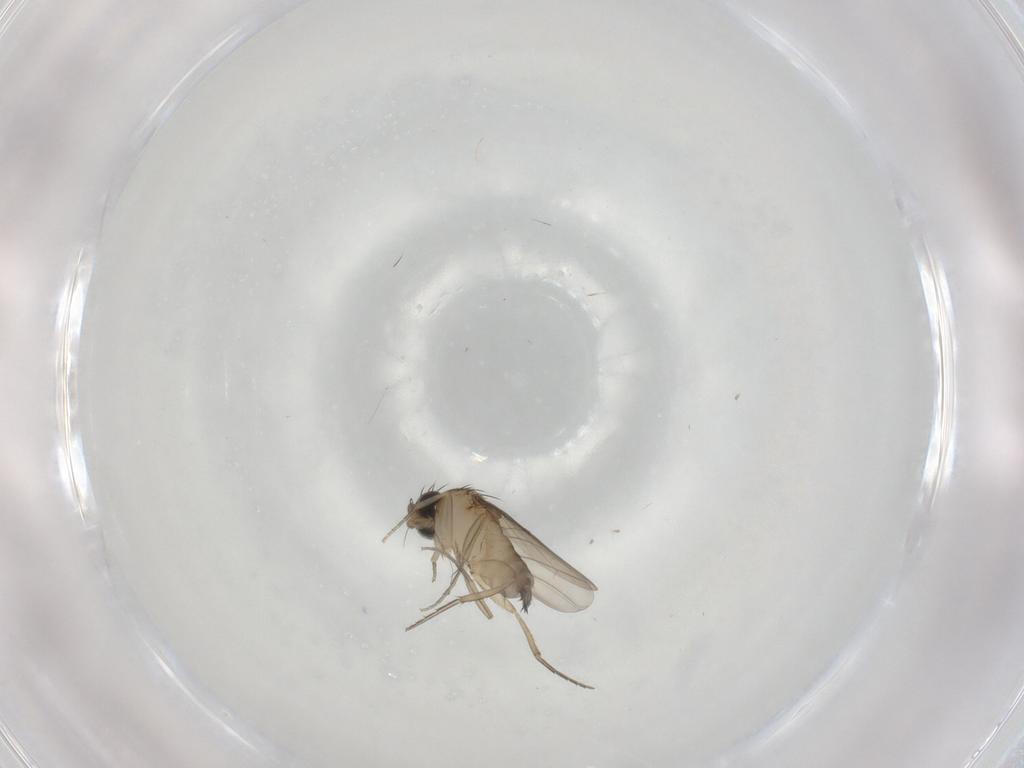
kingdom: Animalia
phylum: Arthropoda
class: Insecta
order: Diptera
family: Phoridae
